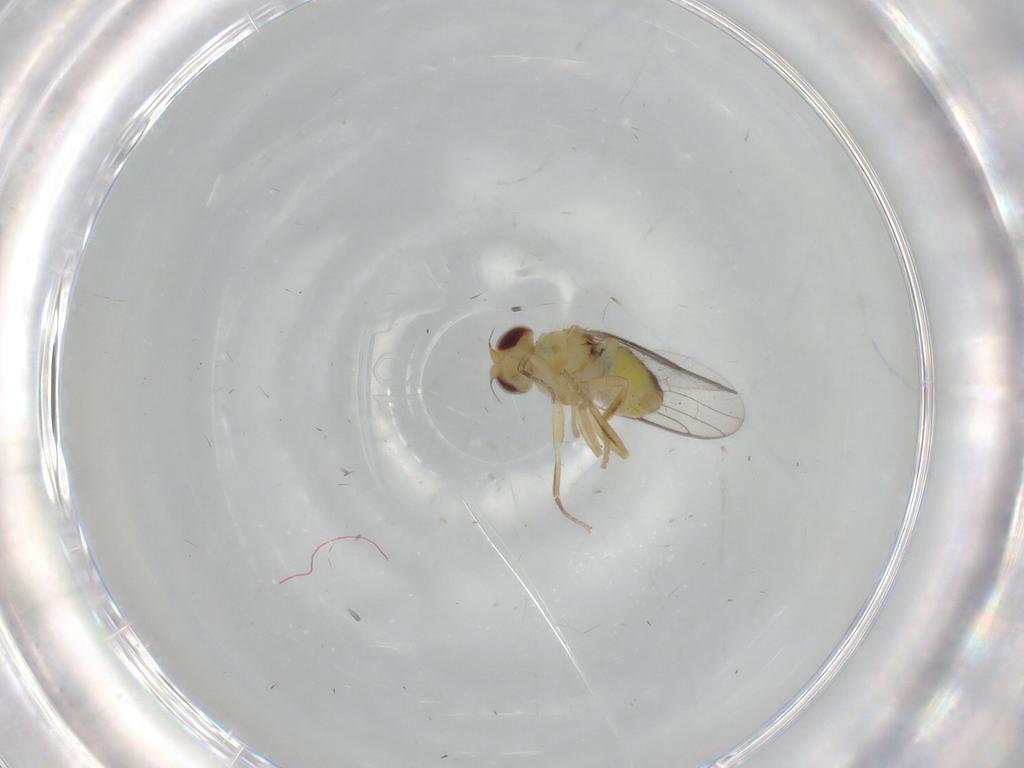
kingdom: Animalia
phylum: Arthropoda
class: Insecta
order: Diptera
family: Chloropidae
